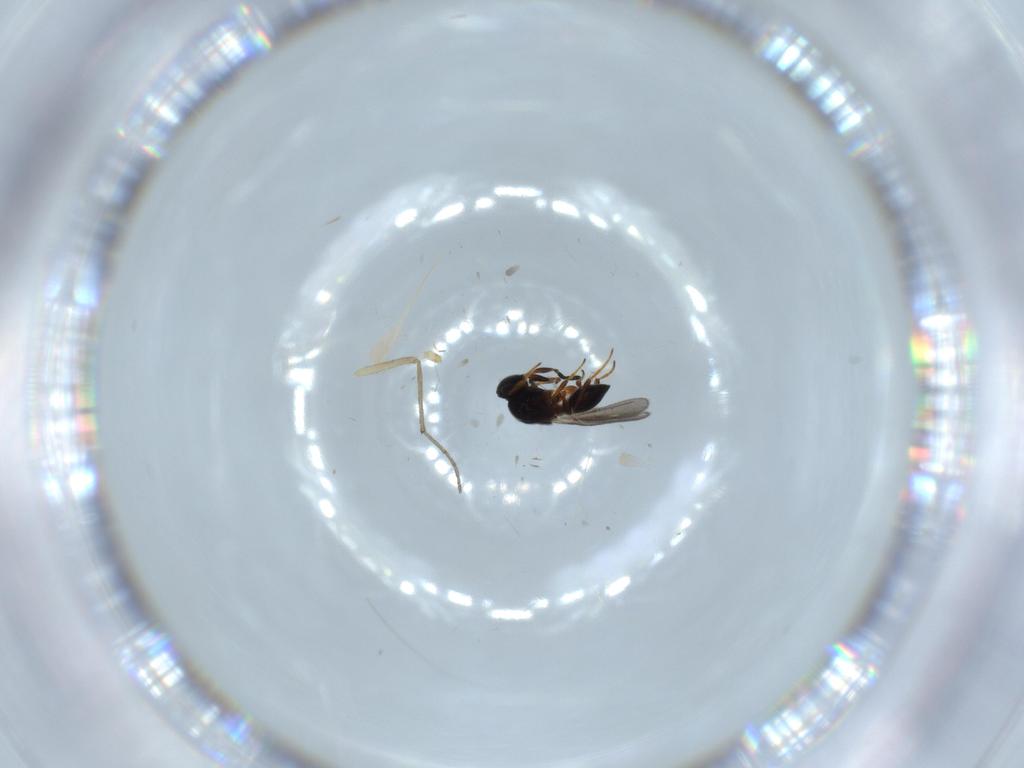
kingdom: Animalia
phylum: Arthropoda
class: Insecta
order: Hymenoptera
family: Platygastridae
